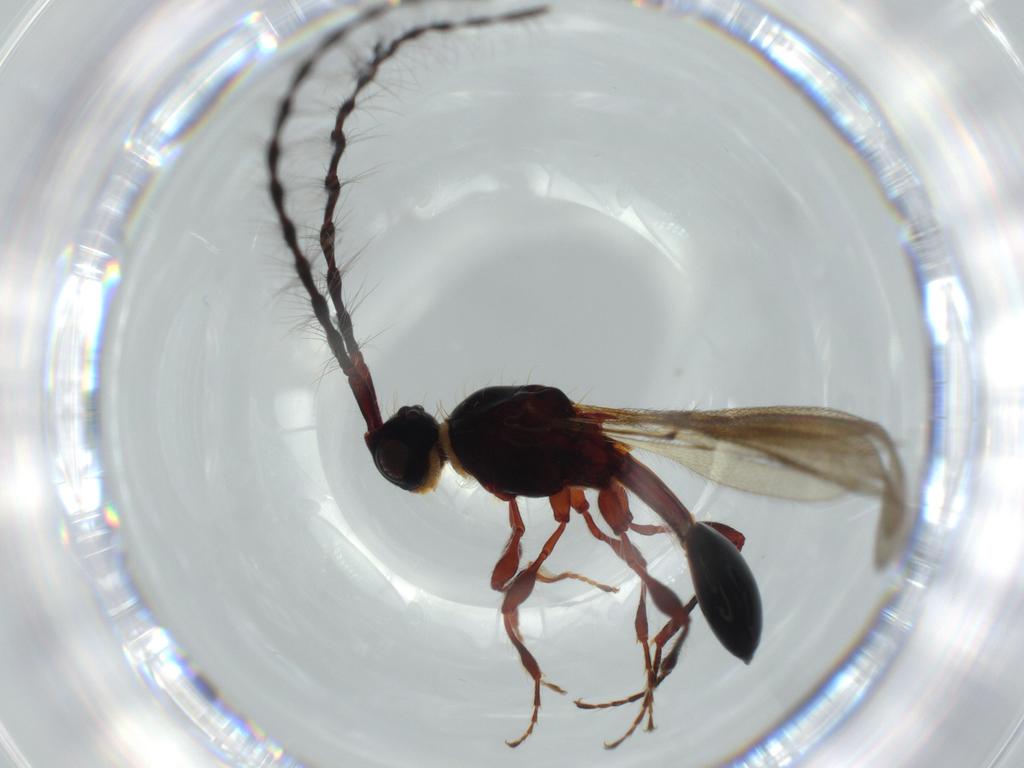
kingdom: Animalia
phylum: Arthropoda
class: Insecta
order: Hymenoptera
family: Diapriidae
